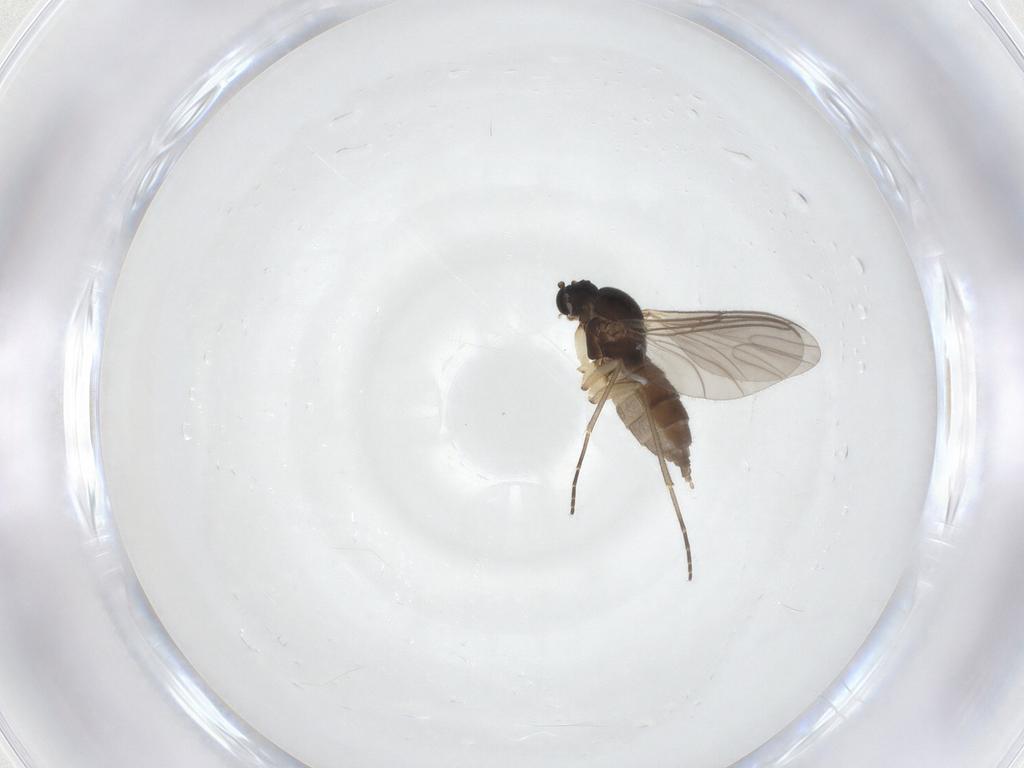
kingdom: Animalia
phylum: Arthropoda
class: Insecta
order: Diptera
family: Sciaridae
